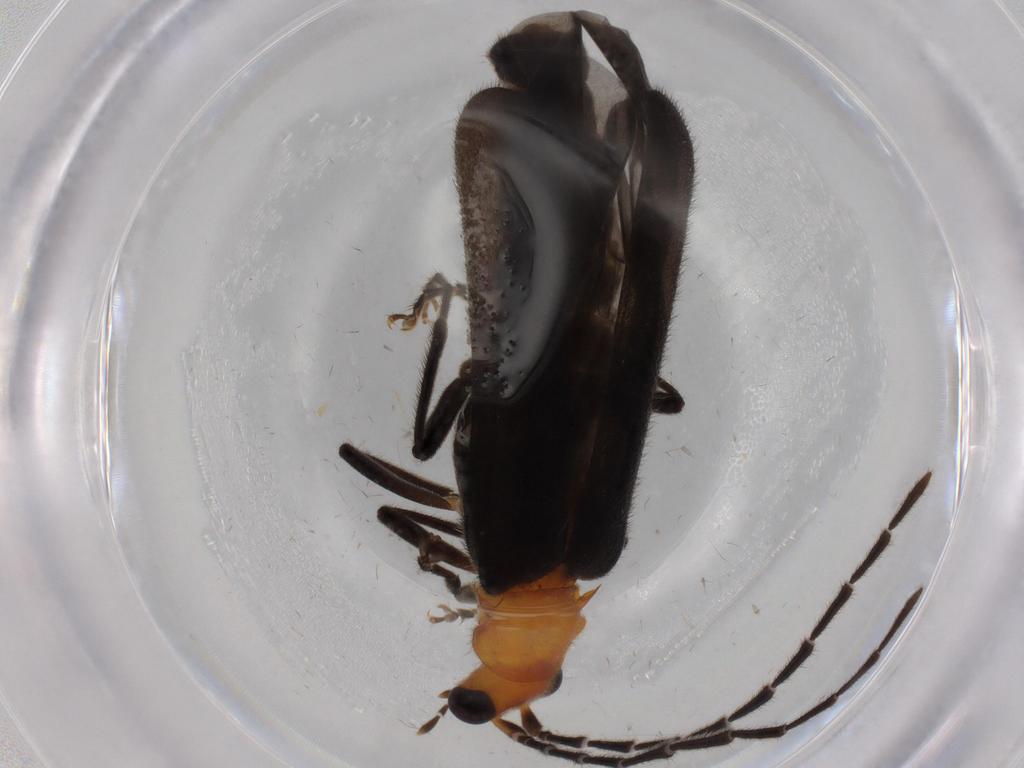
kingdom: Animalia
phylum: Arthropoda
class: Insecta
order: Coleoptera
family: Cantharidae
